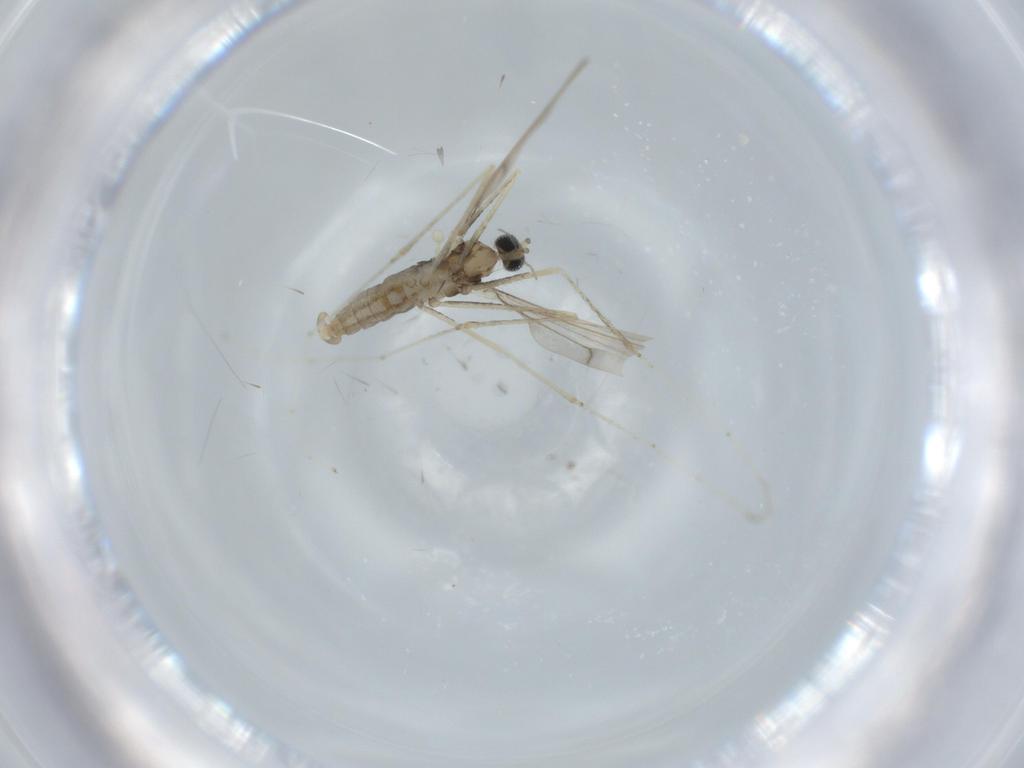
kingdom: Animalia
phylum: Arthropoda
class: Insecta
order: Diptera
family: Cecidomyiidae
